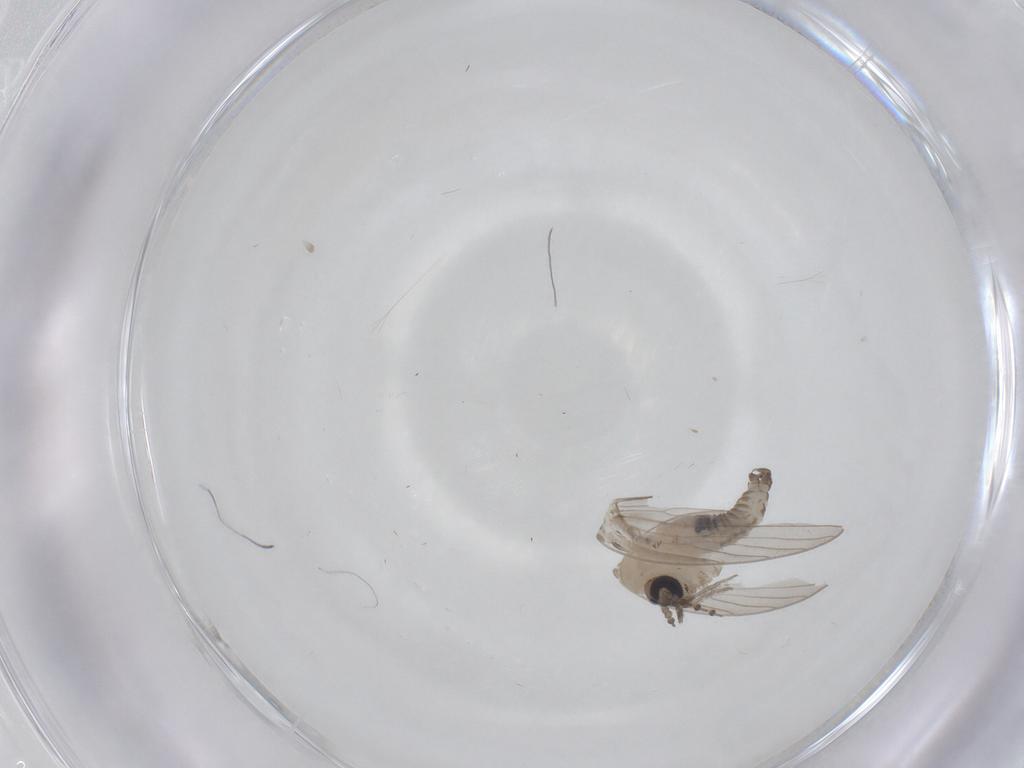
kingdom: Animalia
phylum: Arthropoda
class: Insecta
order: Diptera
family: Psychodidae
